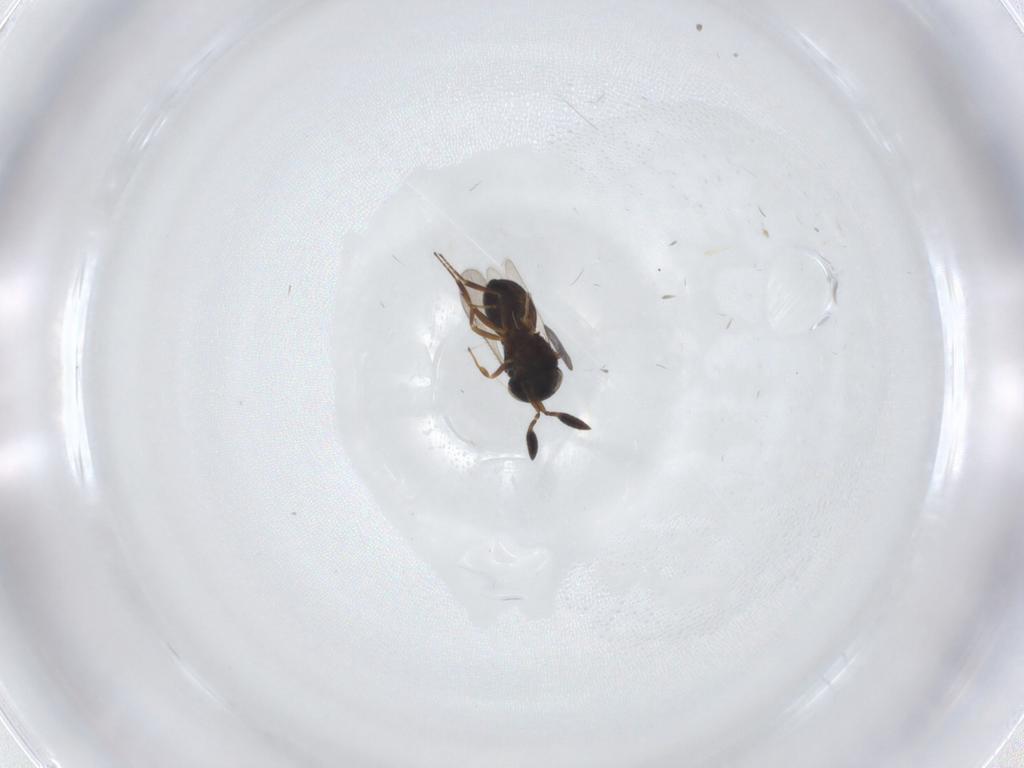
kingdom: Animalia
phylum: Arthropoda
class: Insecta
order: Hymenoptera
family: Scelionidae
